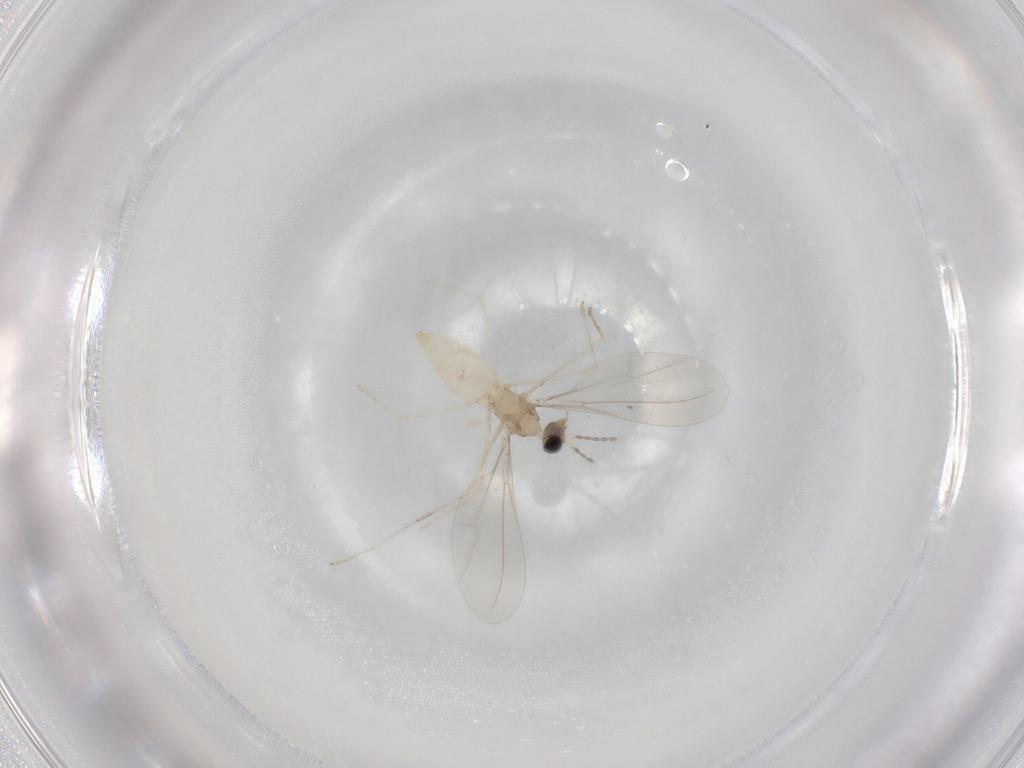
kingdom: Animalia
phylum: Arthropoda
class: Insecta
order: Diptera
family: Cecidomyiidae
